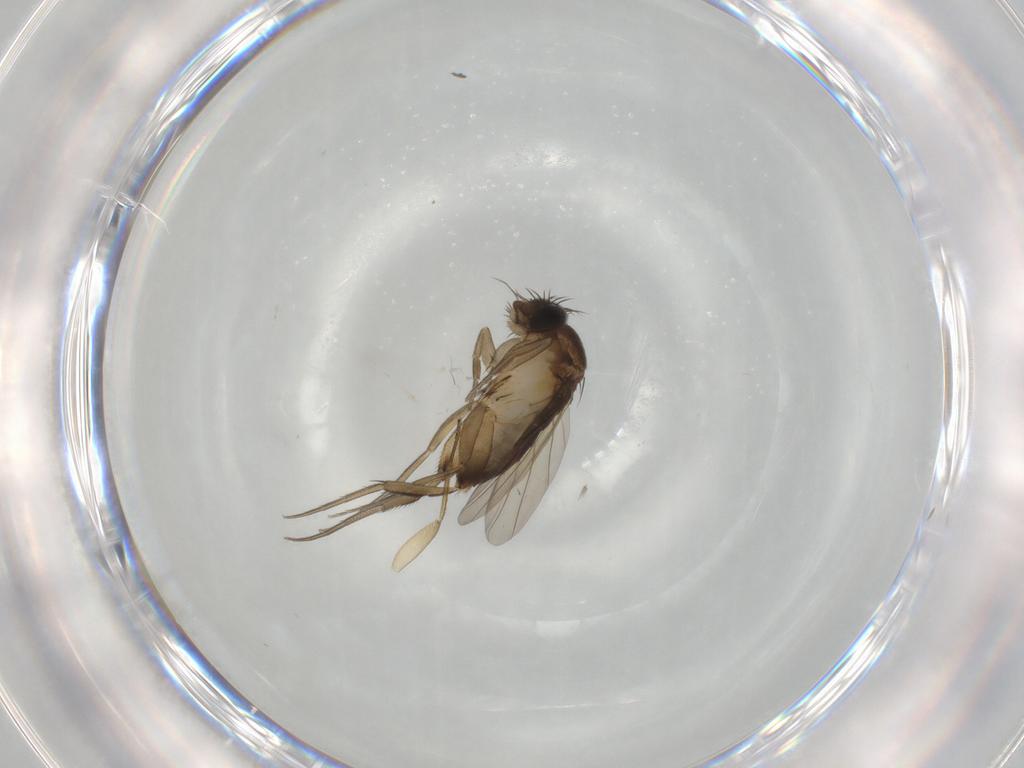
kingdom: Animalia
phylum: Arthropoda
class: Insecta
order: Diptera
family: Phoridae
